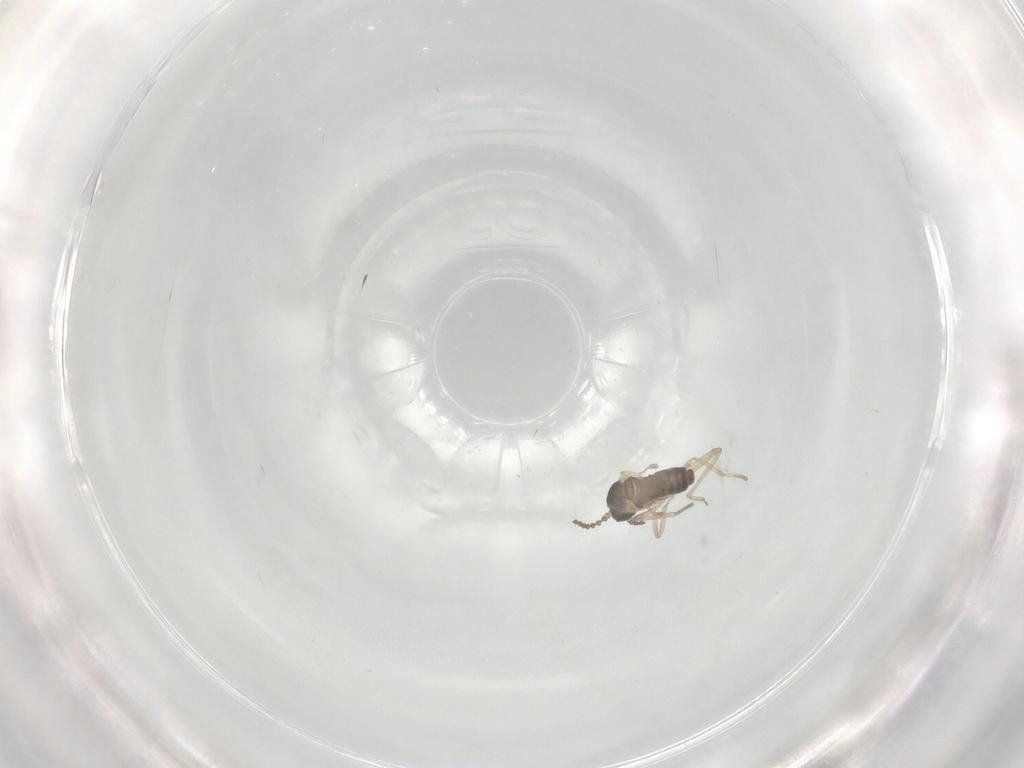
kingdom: Animalia
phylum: Arthropoda
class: Insecta
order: Diptera
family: Cecidomyiidae
